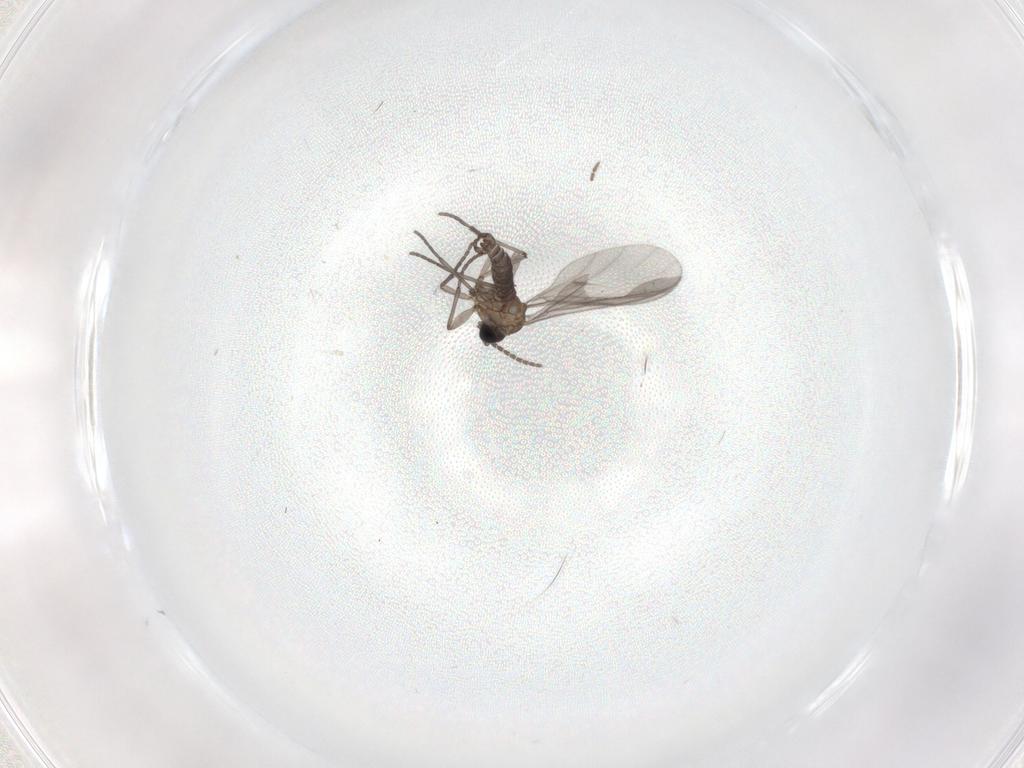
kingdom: Animalia
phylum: Arthropoda
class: Insecta
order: Diptera
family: Sciaridae
